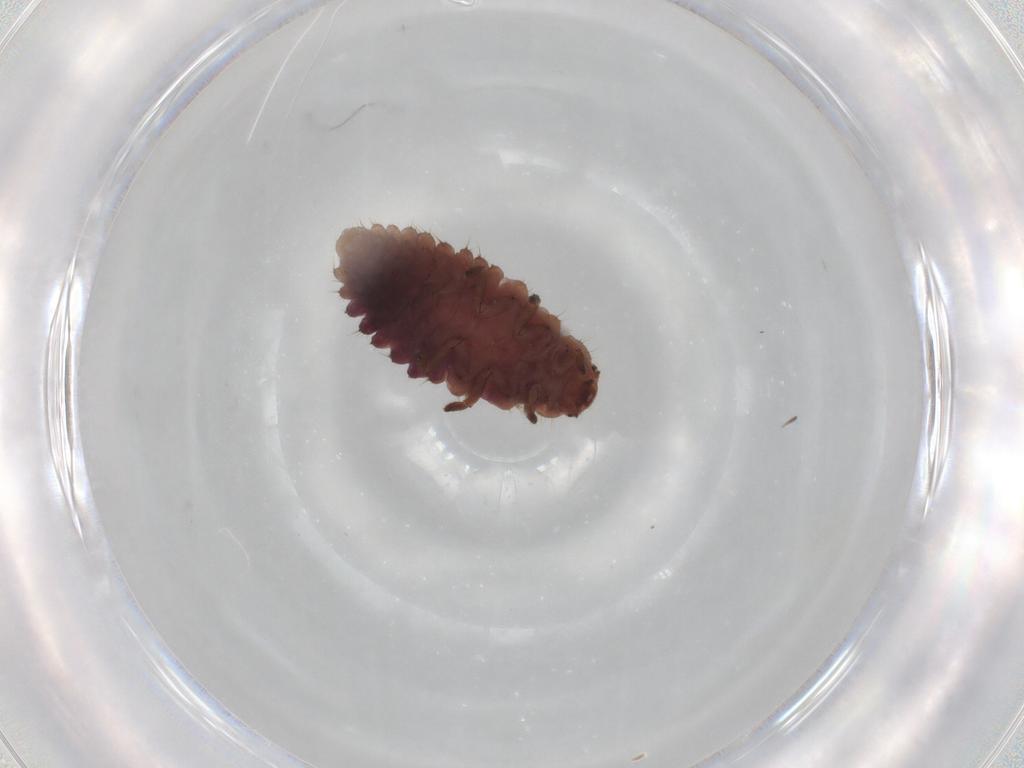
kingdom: Animalia
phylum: Arthropoda
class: Insecta
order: Coleoptera
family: Coccinellidae
